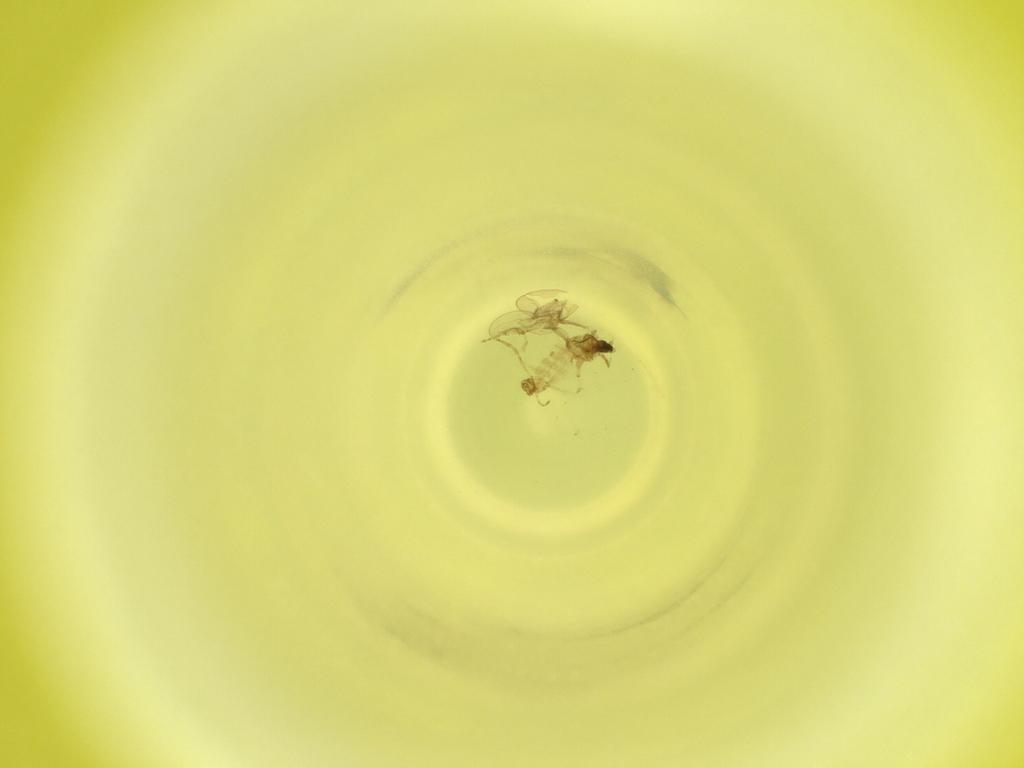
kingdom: Animalia
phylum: Arthropoda
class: Insecta
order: Diptera
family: Cecidomyiidae
